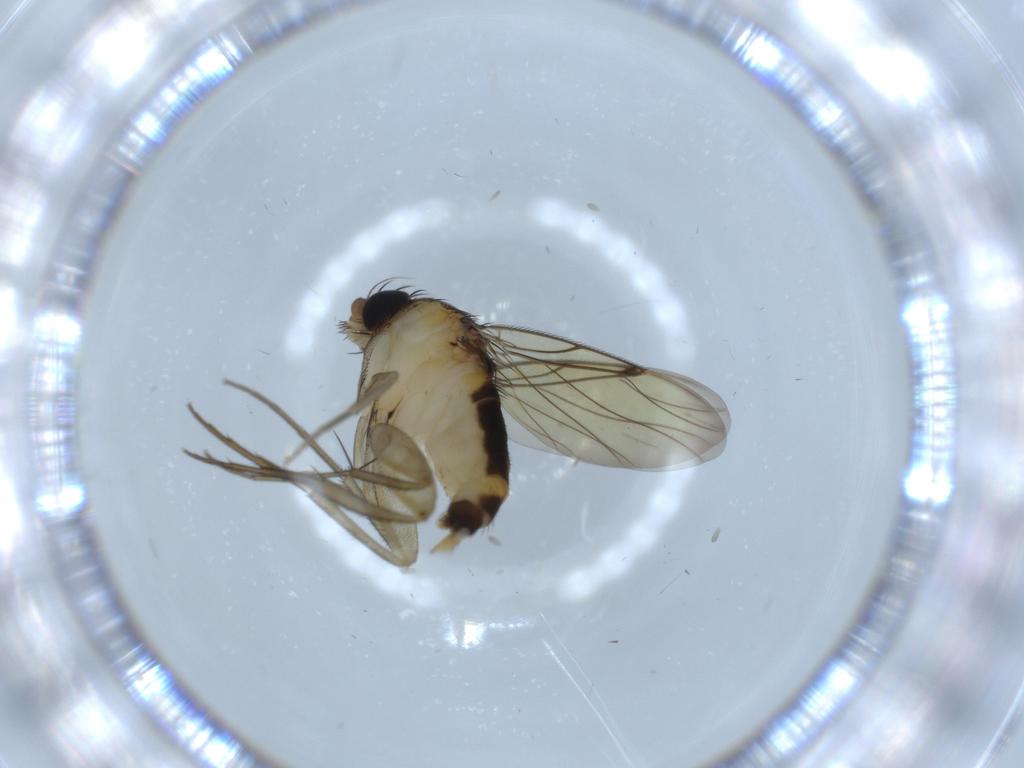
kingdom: Animalia
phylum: Arthropoda
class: Insecta
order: Diptera
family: Phoridae
